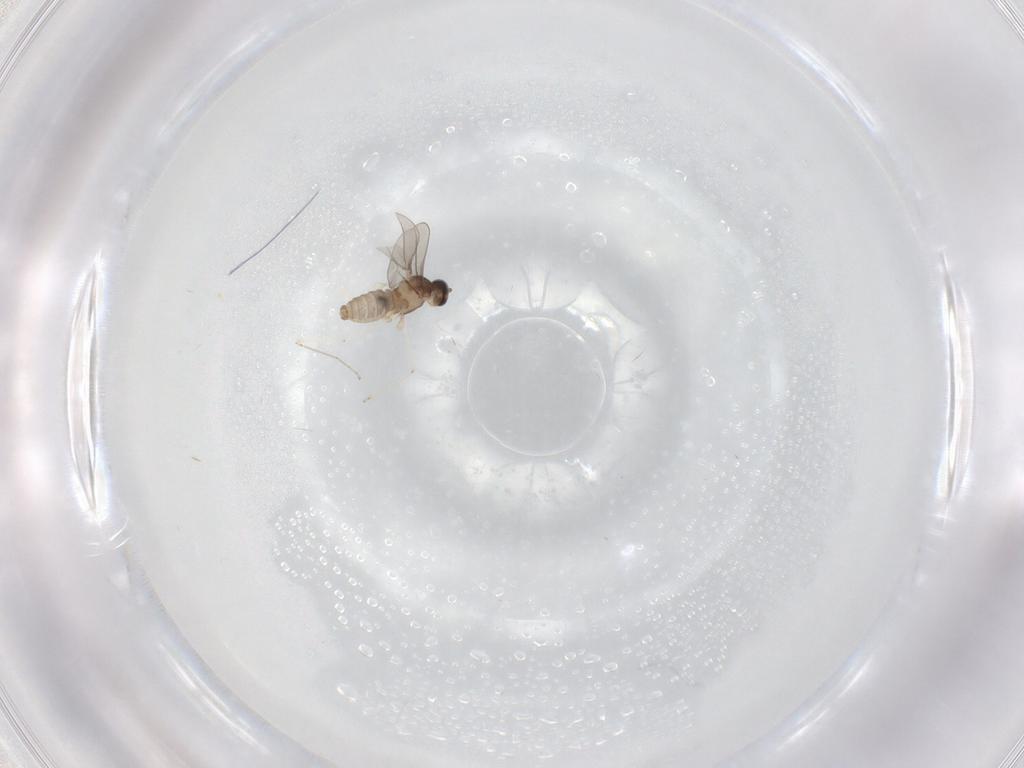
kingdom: Animalia
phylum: Arthropoda
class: Insecta
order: Diptera
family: Cecidomyiidae
